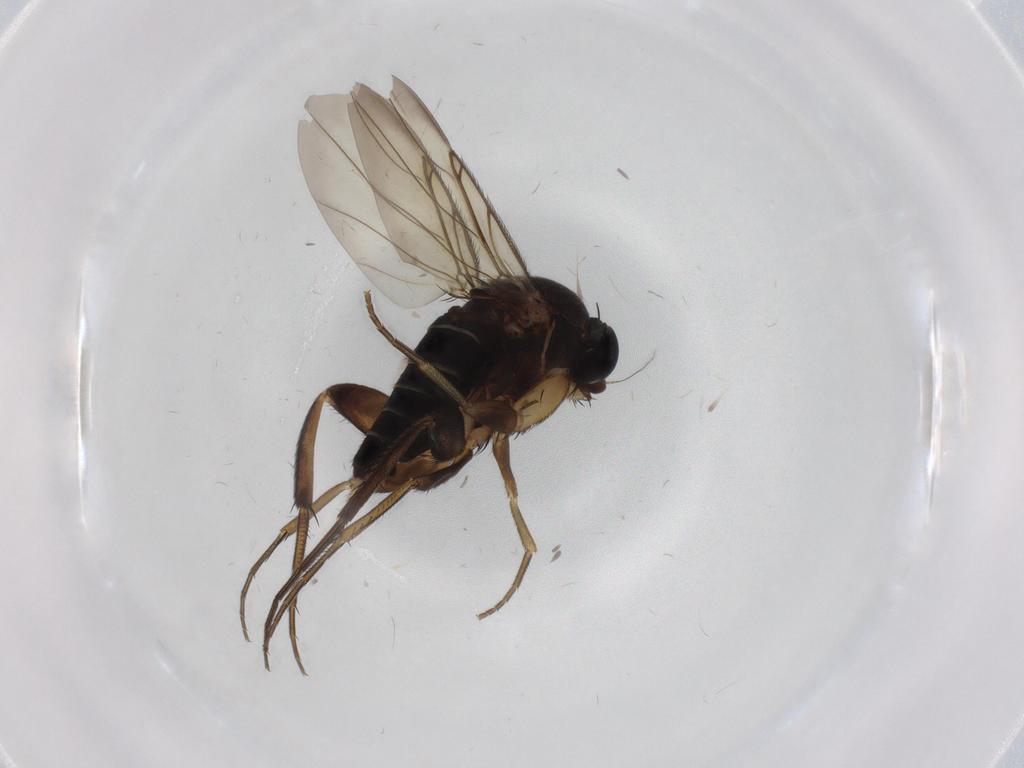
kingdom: Animalia
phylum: Arthropoda
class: Insecta
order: Diptera
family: Phoridae
